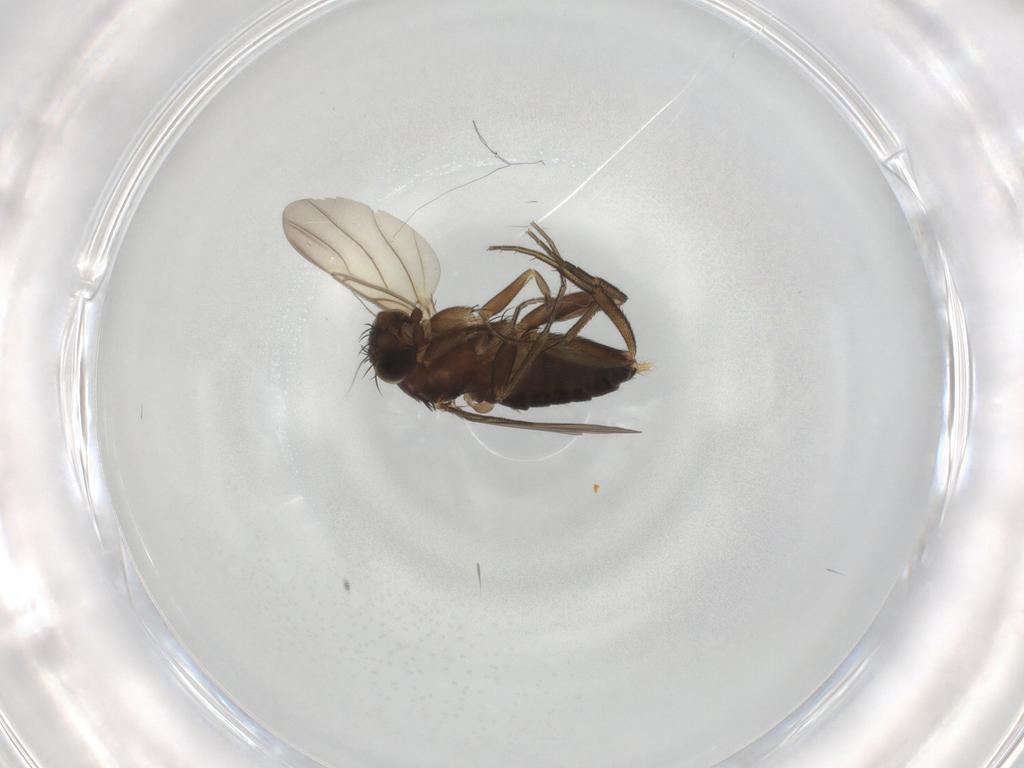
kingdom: Animalia
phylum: Arthropoda
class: Insecta
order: Diptera
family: Phoridae
